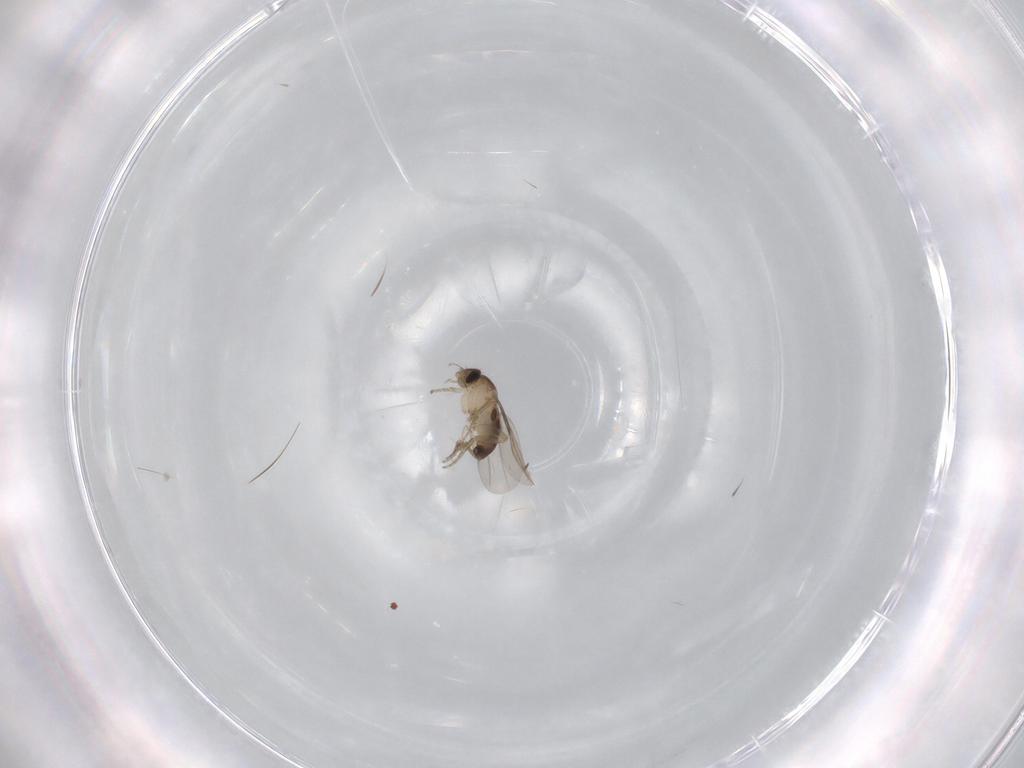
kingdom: Animalia
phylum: Arthropoda
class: Insecta
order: Diptera
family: Phoridae
